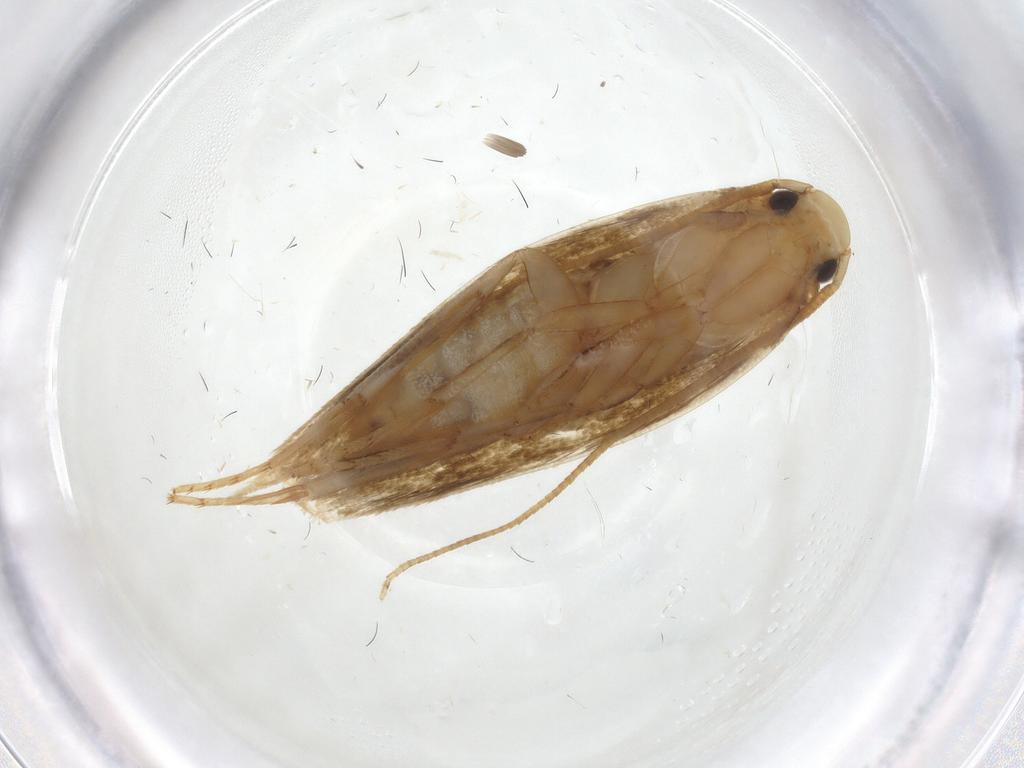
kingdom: Animalia
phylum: Arthropoda
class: Insecta
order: Lepidoptera
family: Tineidae
